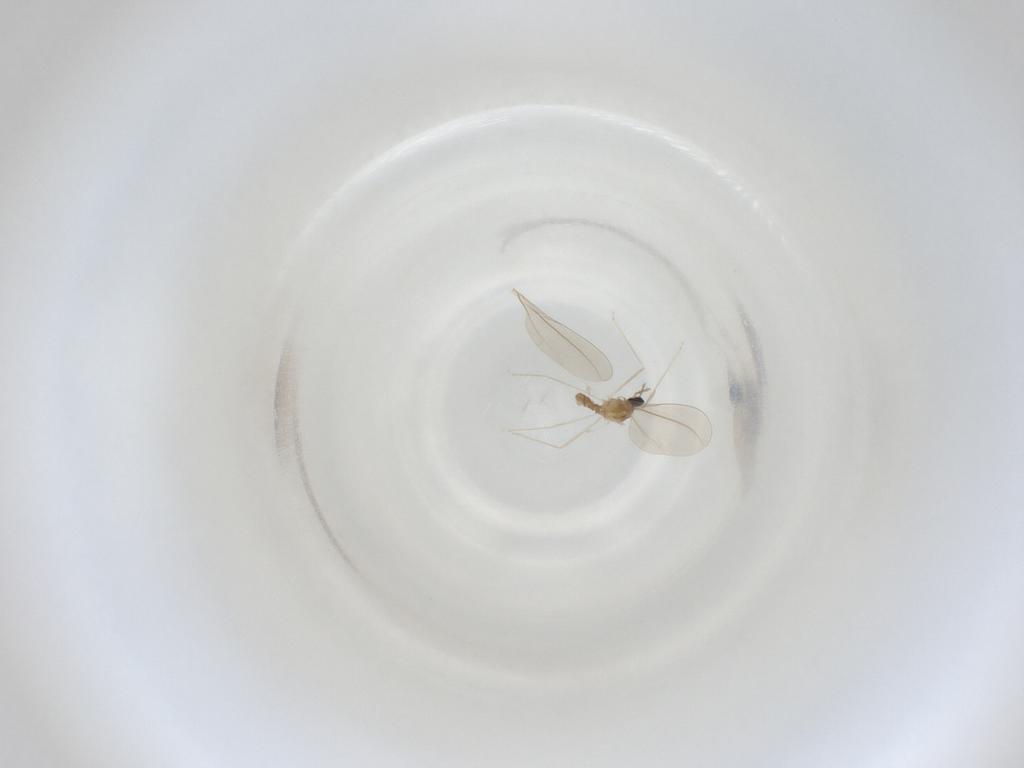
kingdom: Animalia
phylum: Arthropoda
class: Insecta
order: Diptera
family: Cecidomyiidae
